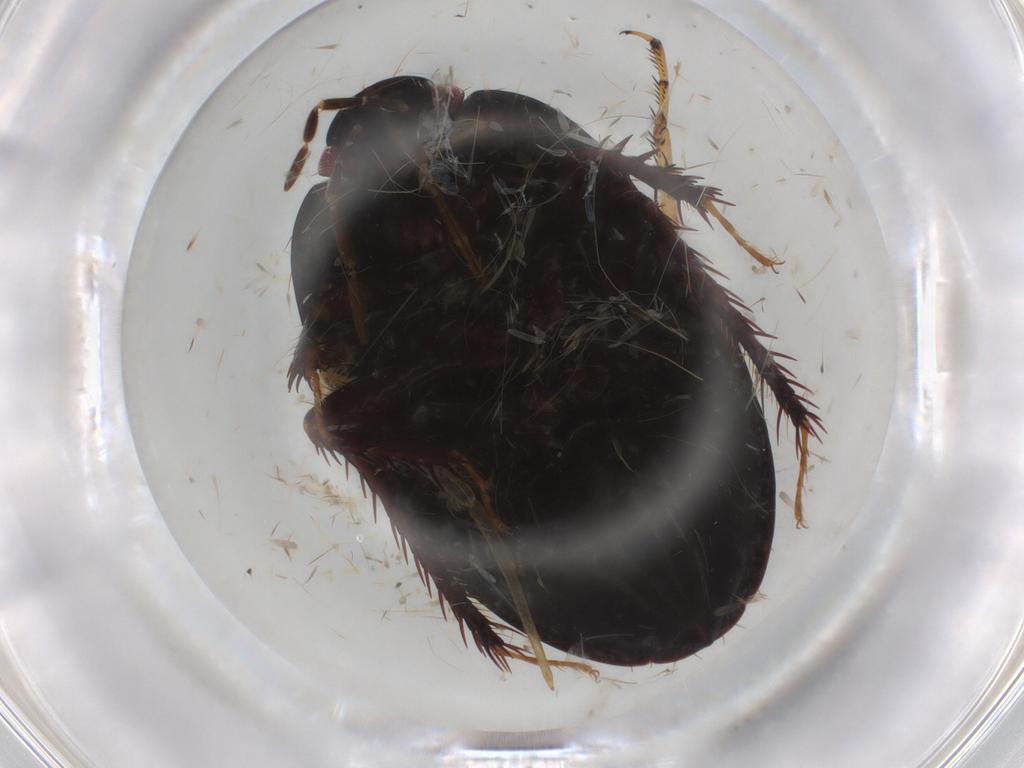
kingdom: Animalia
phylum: Arthropoda
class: Insecta
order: Hemiptera
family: Cydnidae
